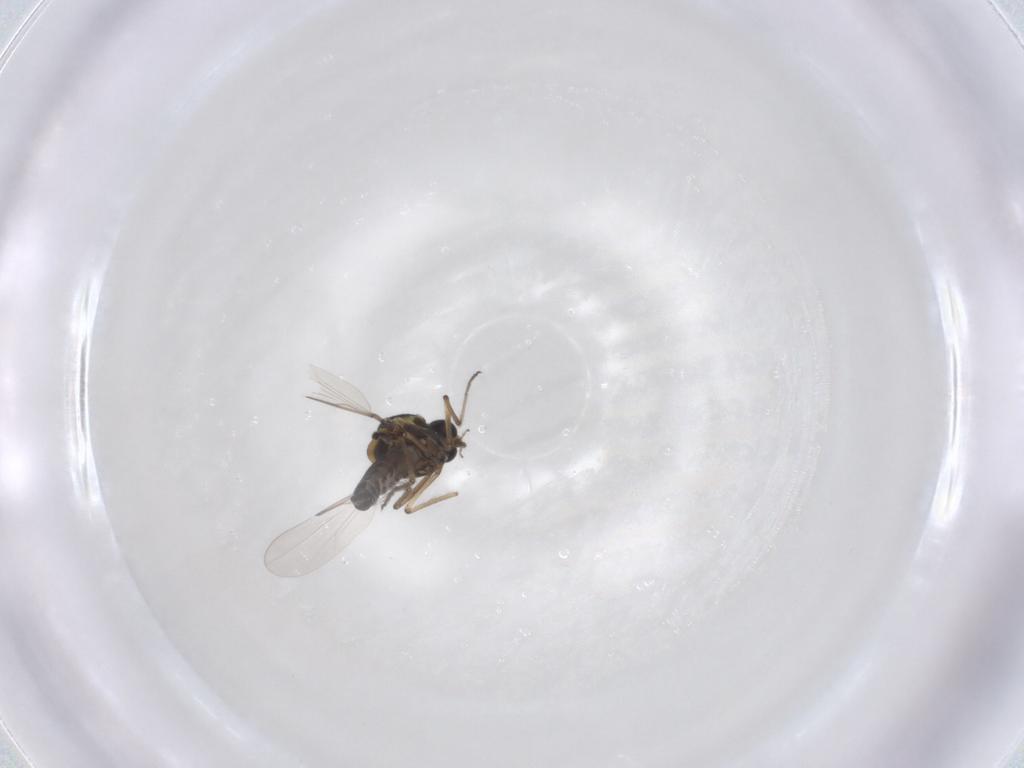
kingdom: Animalia
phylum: Arthropoda
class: Insecta
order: Diptera
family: Ceratopogonidae
